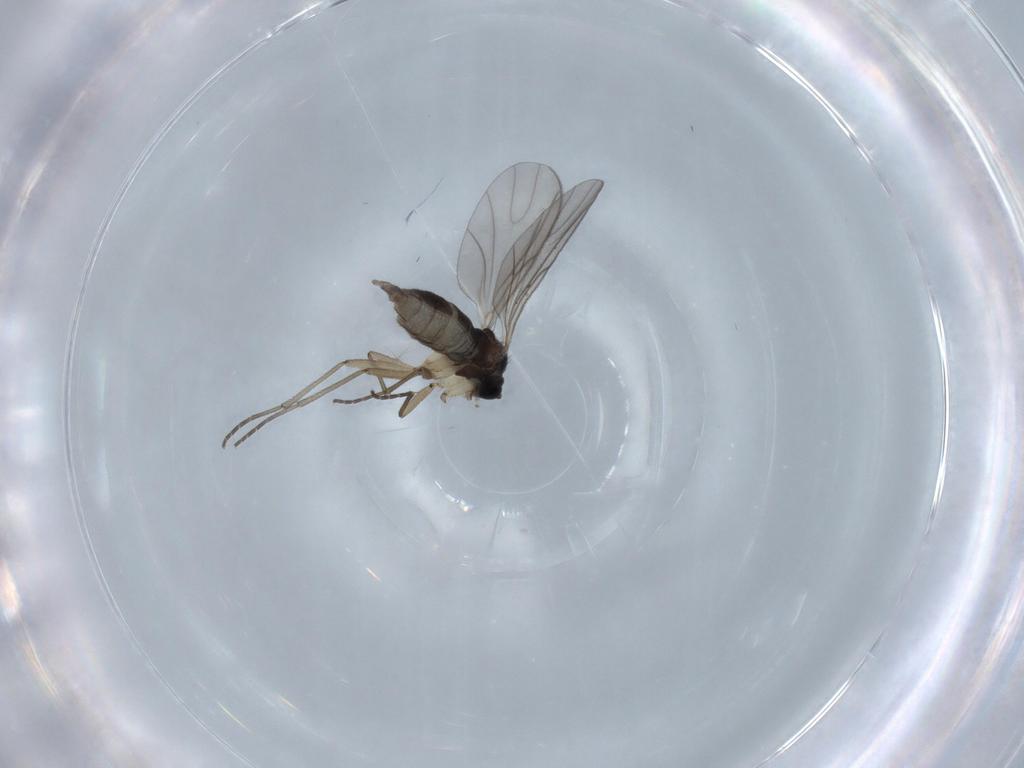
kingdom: Animalia
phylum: Arthropoda
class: Insecta
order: Diptera
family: Sciaridae
